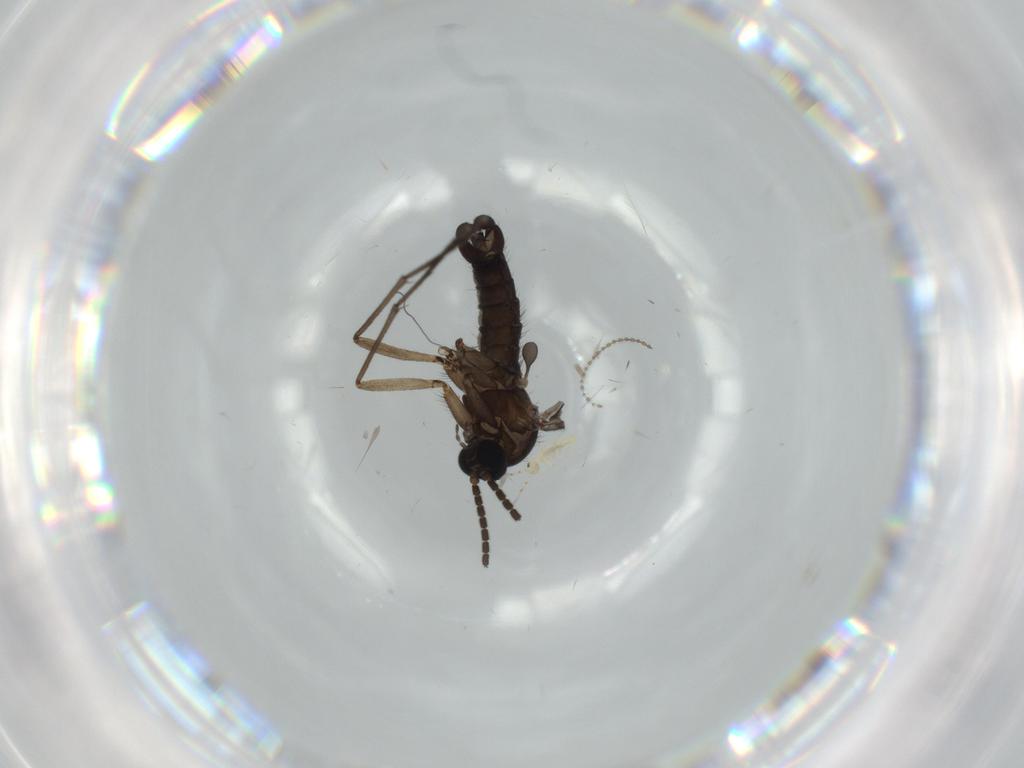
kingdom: Animalia
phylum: Arthropoda
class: Insecta
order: Diptera
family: Sciaridae
